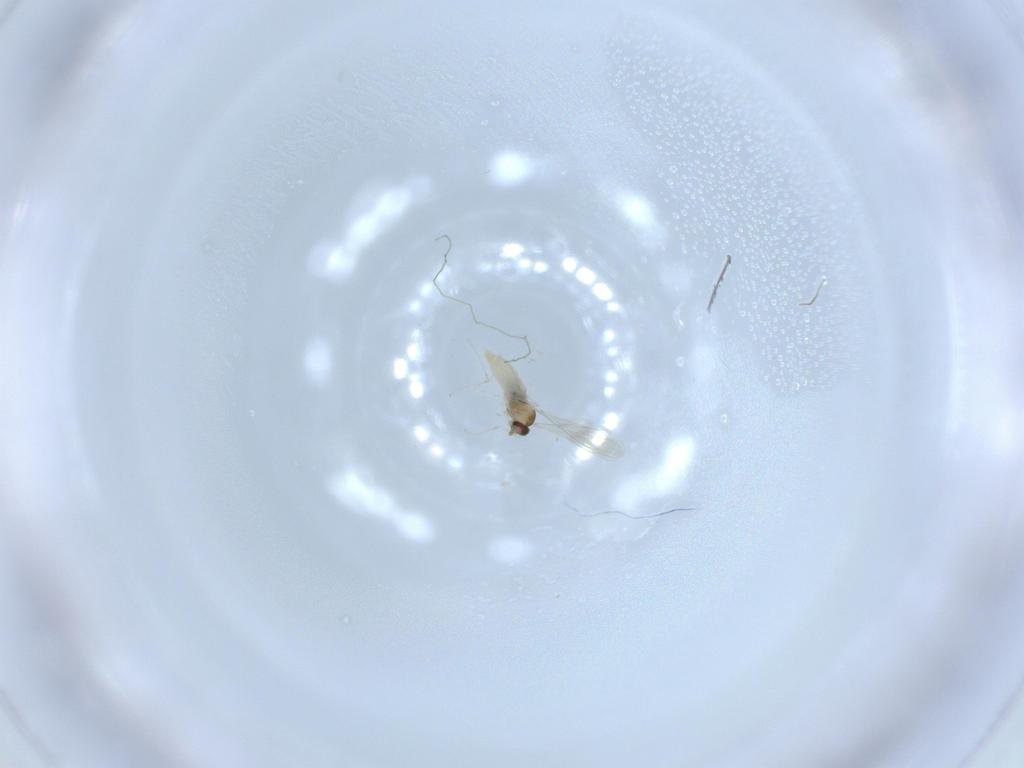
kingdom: Animalia
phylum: Arthropoda
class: Insecta
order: Diptera
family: Cecidomyiidae
